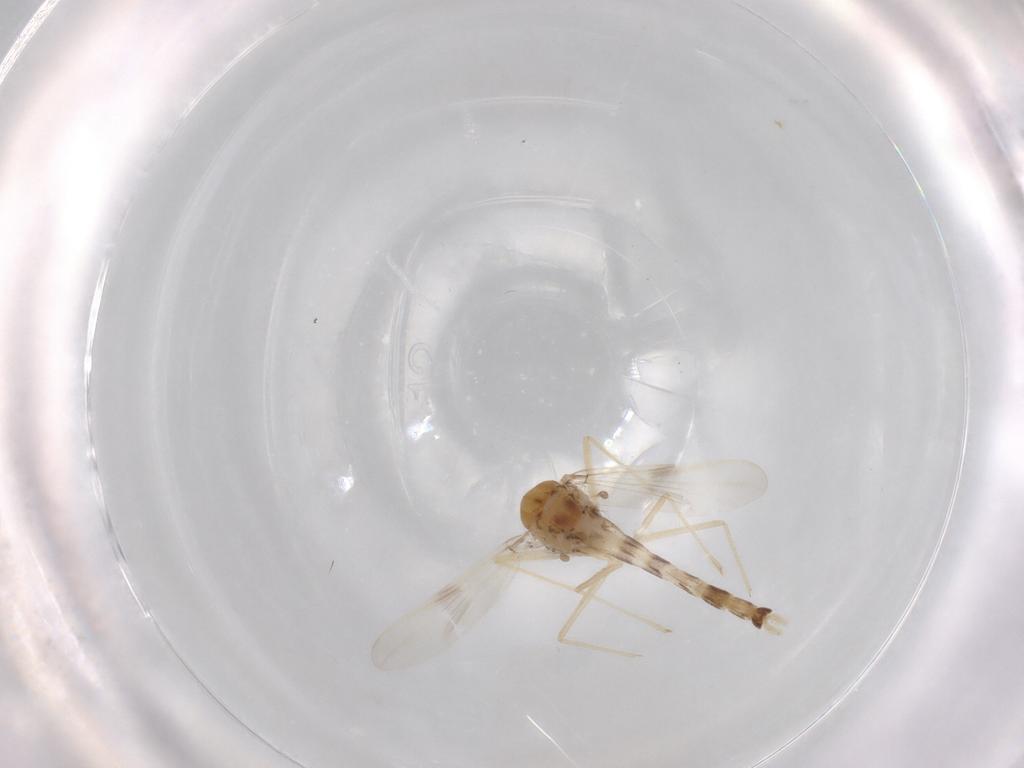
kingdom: Animalia
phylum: Arthropoda
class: Insecta
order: Diptera
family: Chironomidae
